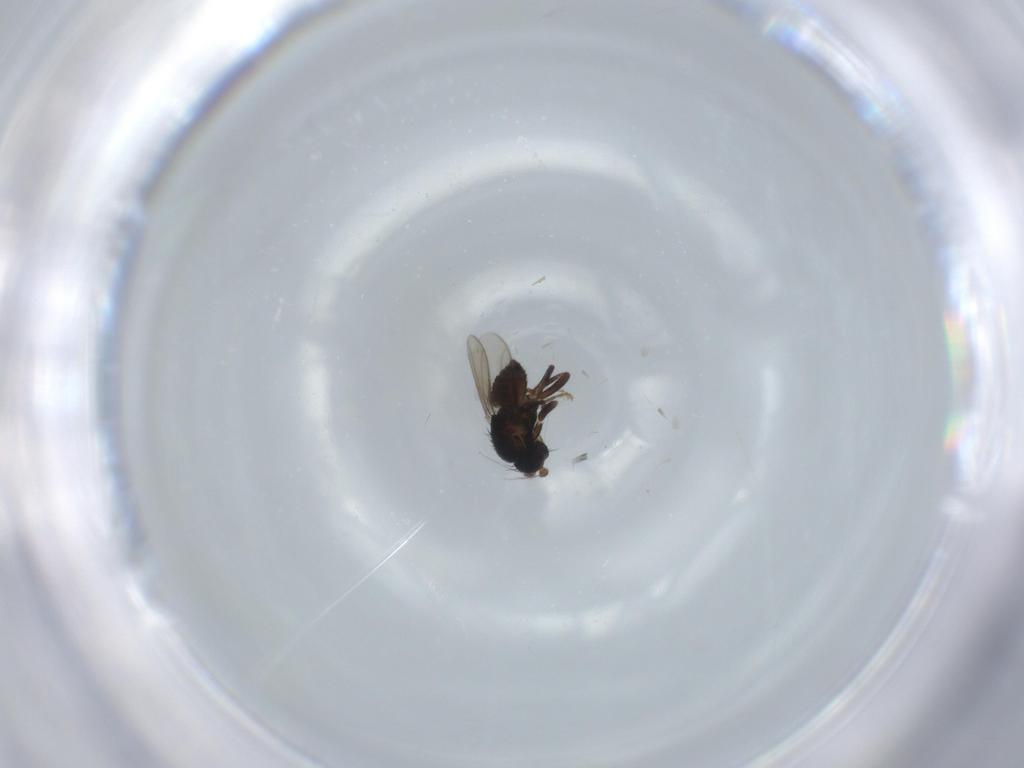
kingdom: Animalia
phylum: Arthropoda
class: Insecta
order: Diptera
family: Sphaeroceridae
